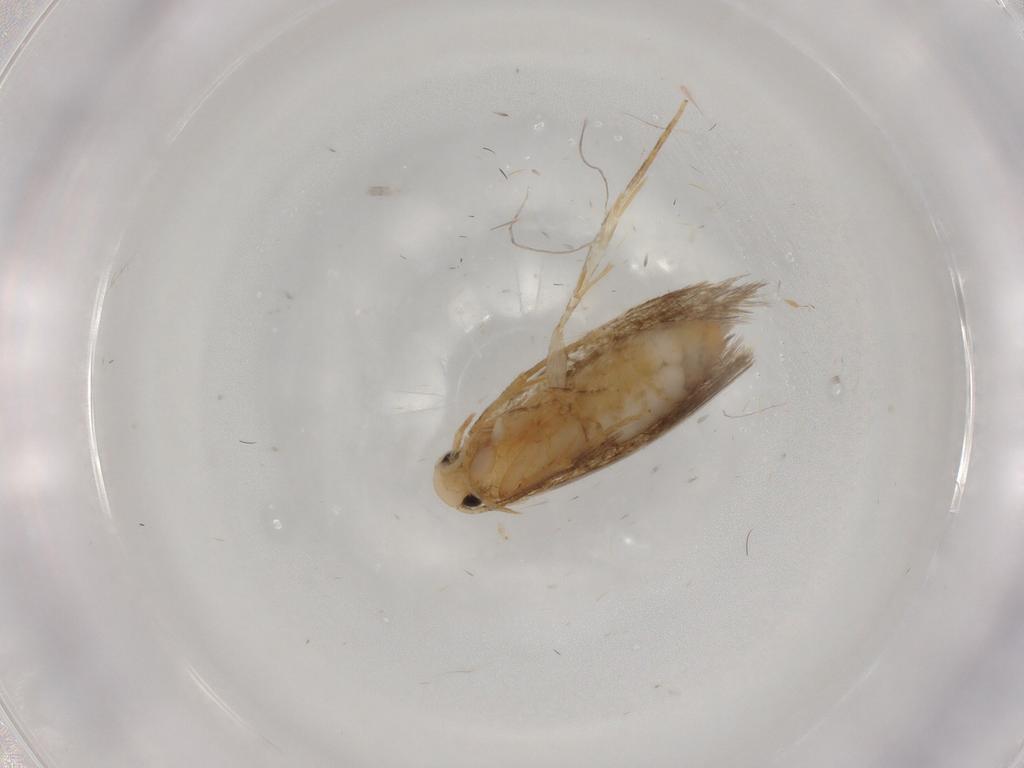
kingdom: Animalia
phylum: Arthropoda
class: Insecta
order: Lepidoptera
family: Tineidae
